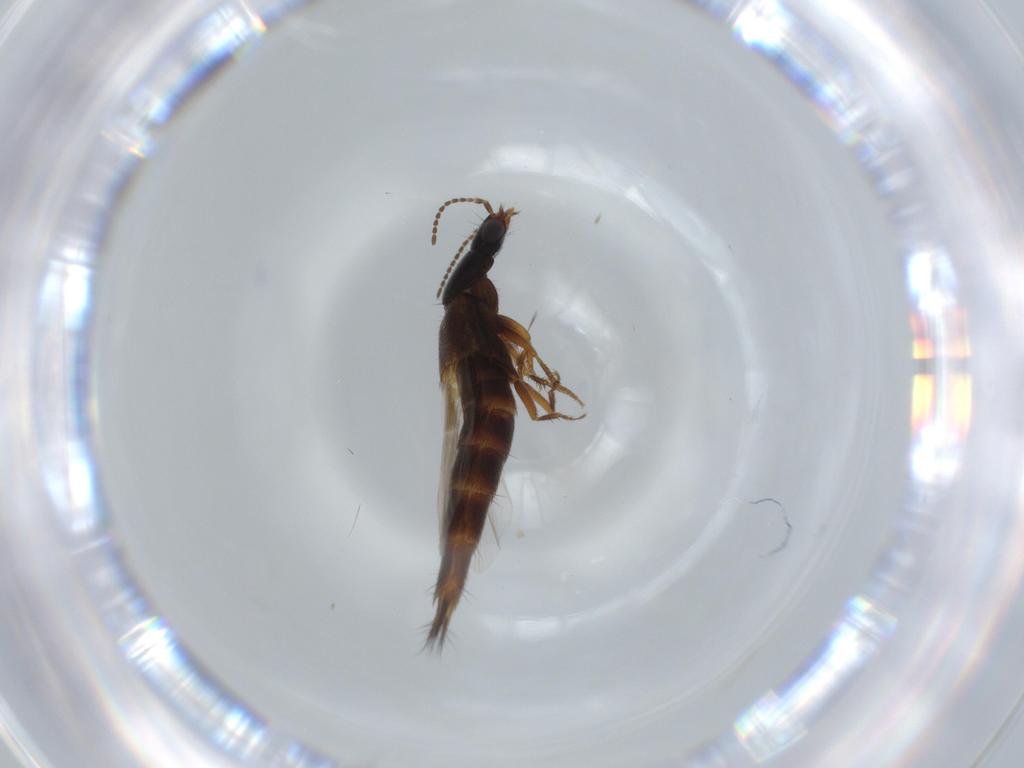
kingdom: Animalia
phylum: Arthropoda
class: Insecta
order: Coleoptera
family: Staphylinidae
